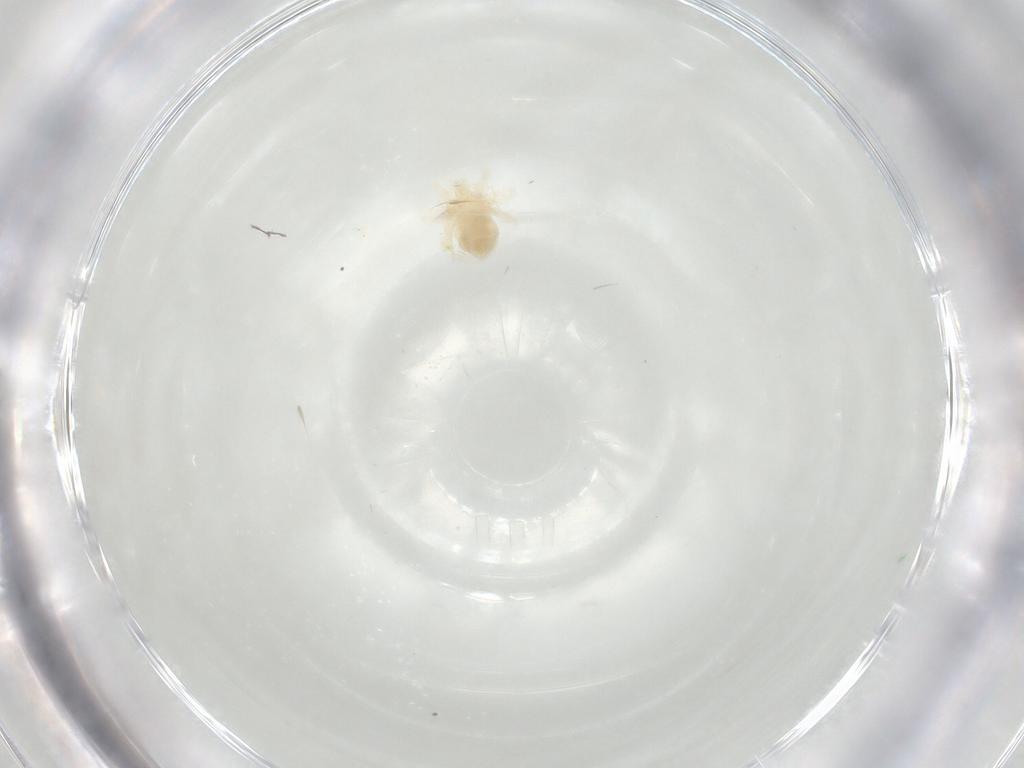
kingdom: Animalia
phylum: Arthropoda
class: Arachnida
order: Trombidiformes
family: Anystidae
